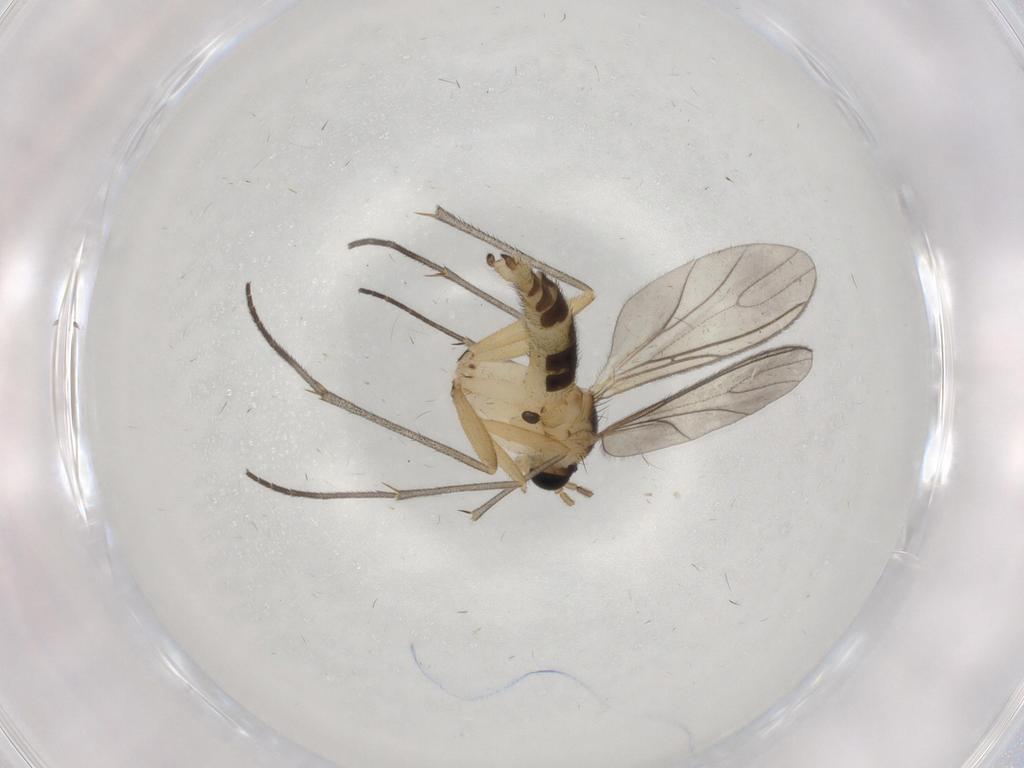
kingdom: Animalia
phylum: Arthropoda
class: Insecta
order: Diptera
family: Sciaridae
